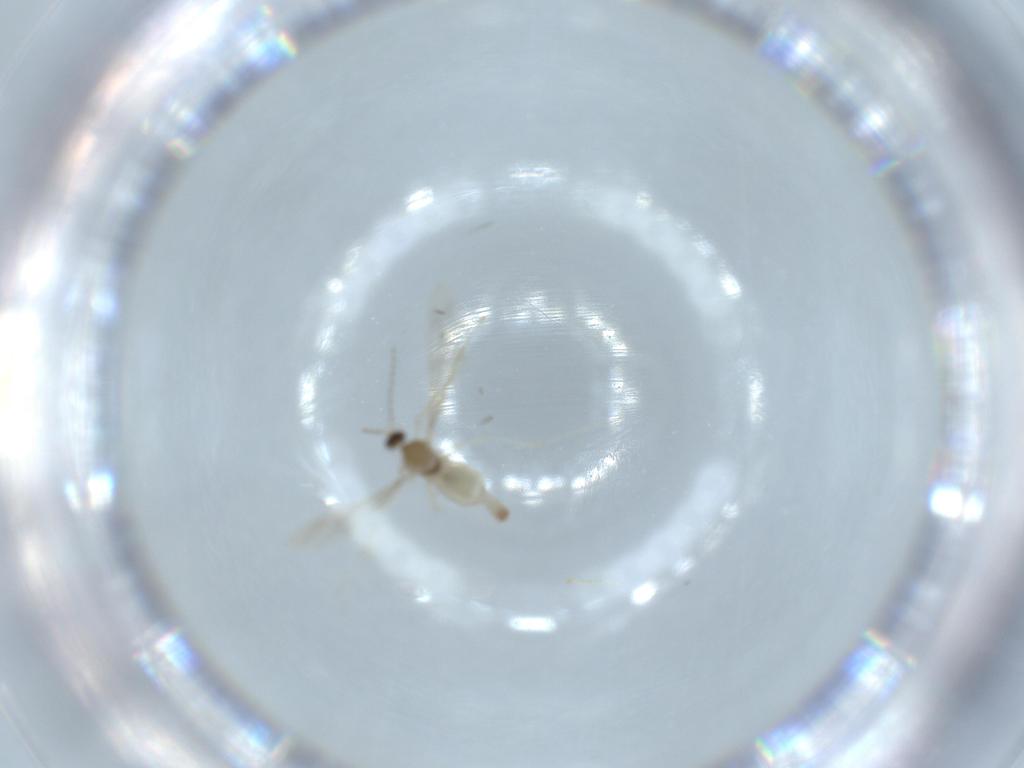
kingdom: Animalia
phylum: Arthropoda
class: Insecta
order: Diptera
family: Cecidomyiidae
